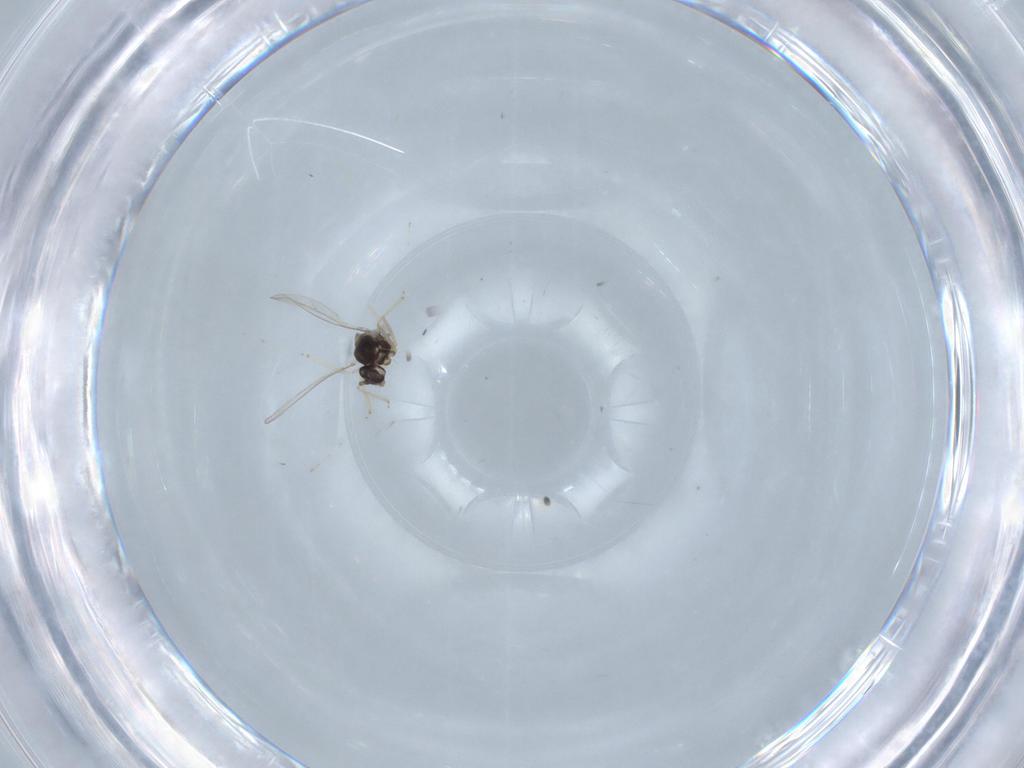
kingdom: Animalia
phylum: Arthropoda
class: Insecta
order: Diptera
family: Cecidomyiidae
